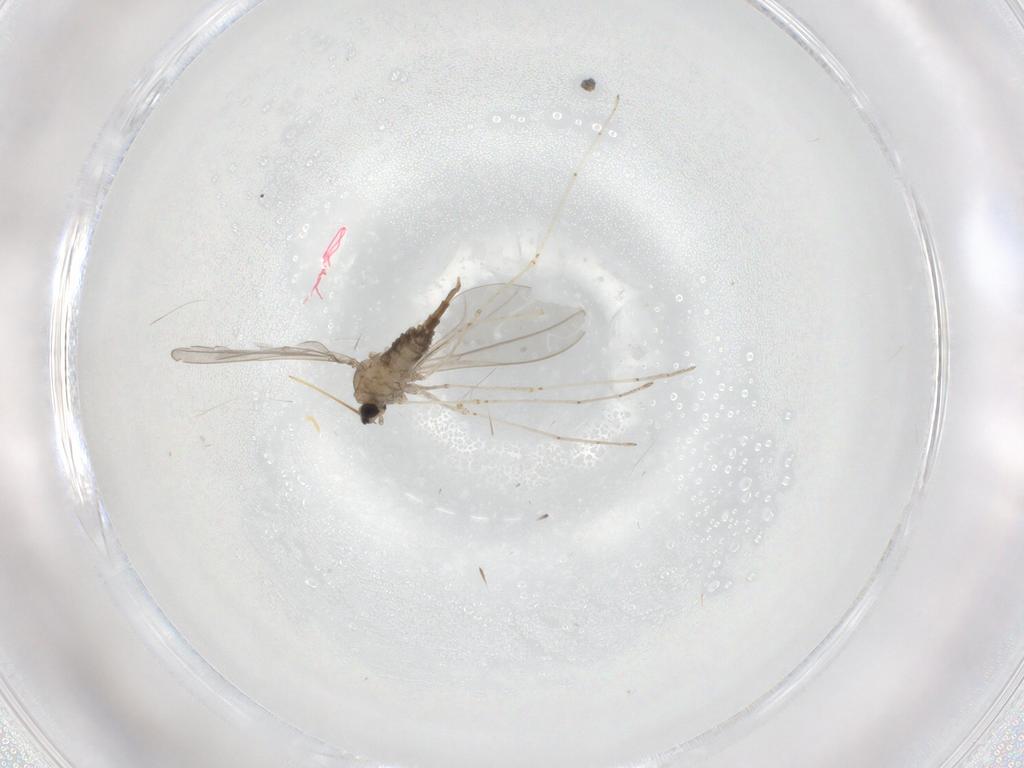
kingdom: Animalia
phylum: Arthropoda
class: Insecta
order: Diptera
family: Cecidomyiidae
